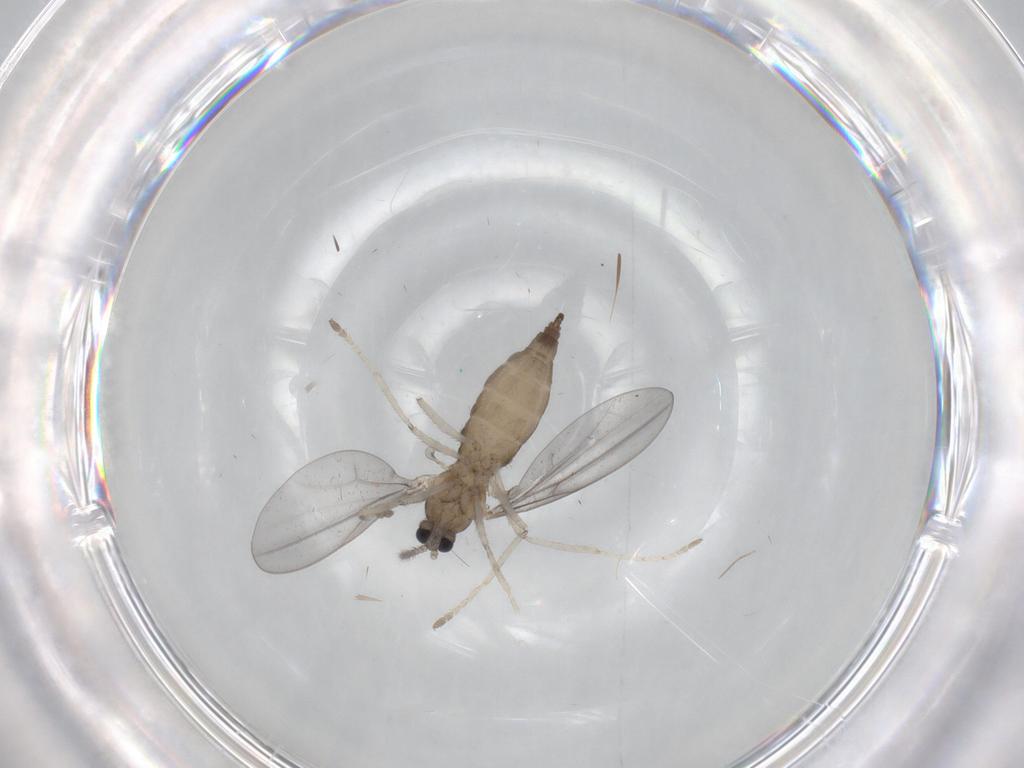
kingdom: Animalia
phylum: Arthropoda
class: Insecta
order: Diptera
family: Cecidomyiidae
